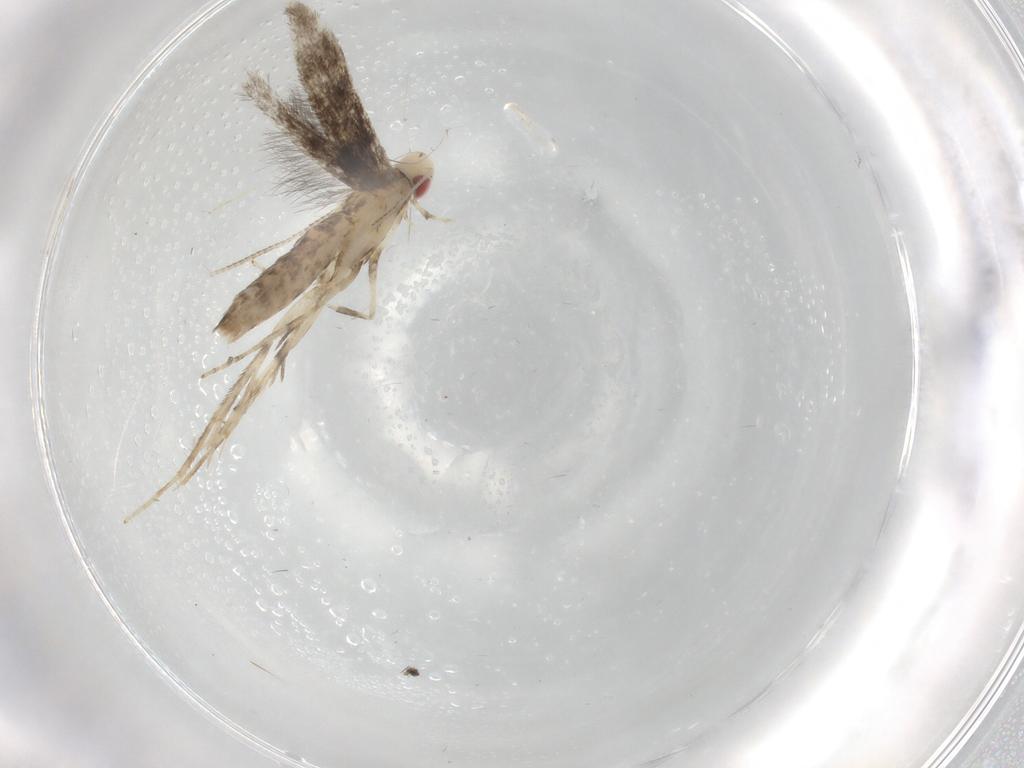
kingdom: Animalia
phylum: Arthropoda
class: Insecta
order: Lepidoptera
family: Gracillariidae
